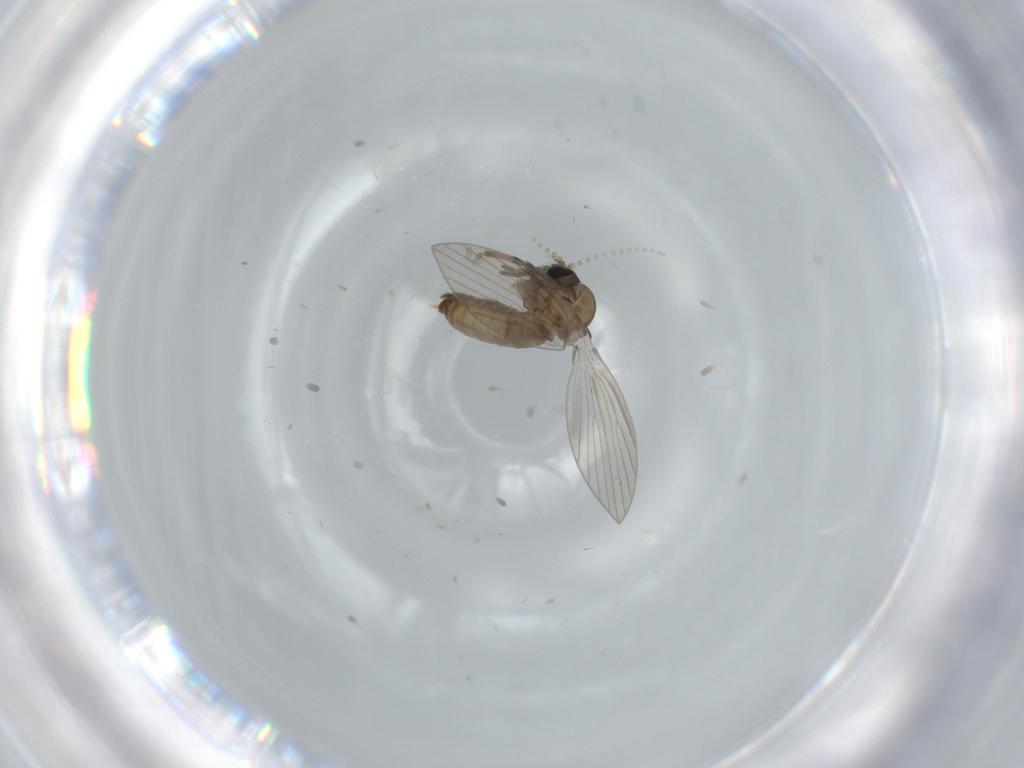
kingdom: Animalia
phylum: Arthropoda
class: Insecta
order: Diptera
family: Psychodidae
